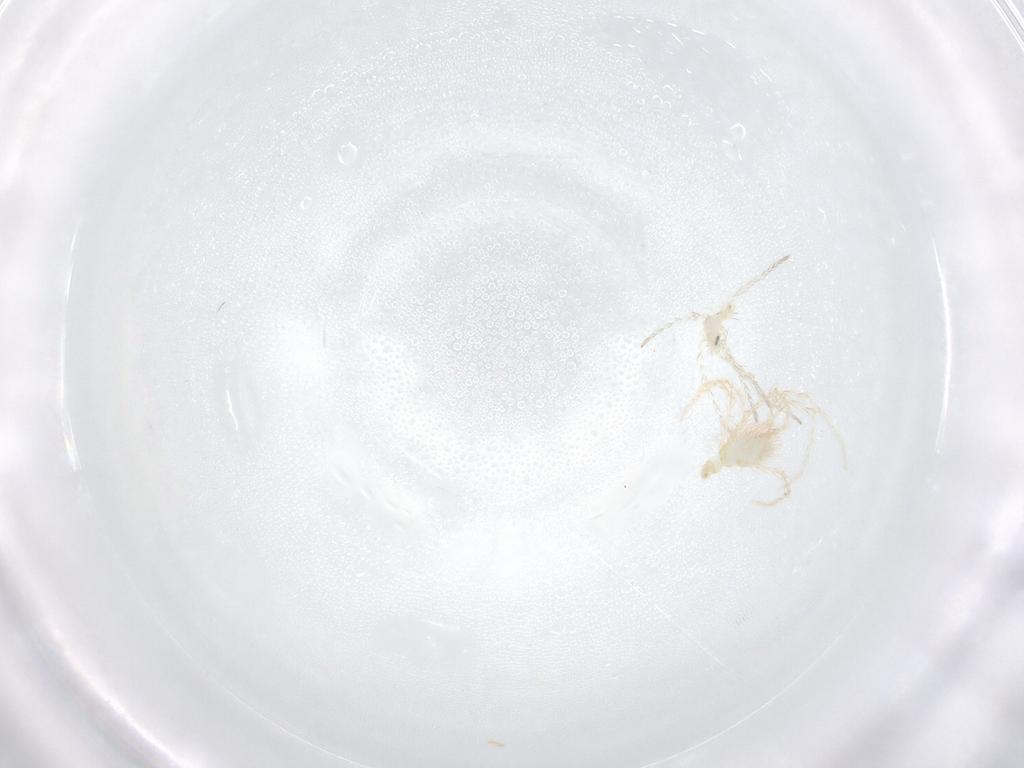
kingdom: Animalia
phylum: Arthropoda
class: Arachnida
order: Trombidiformes
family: Erythraeidae
